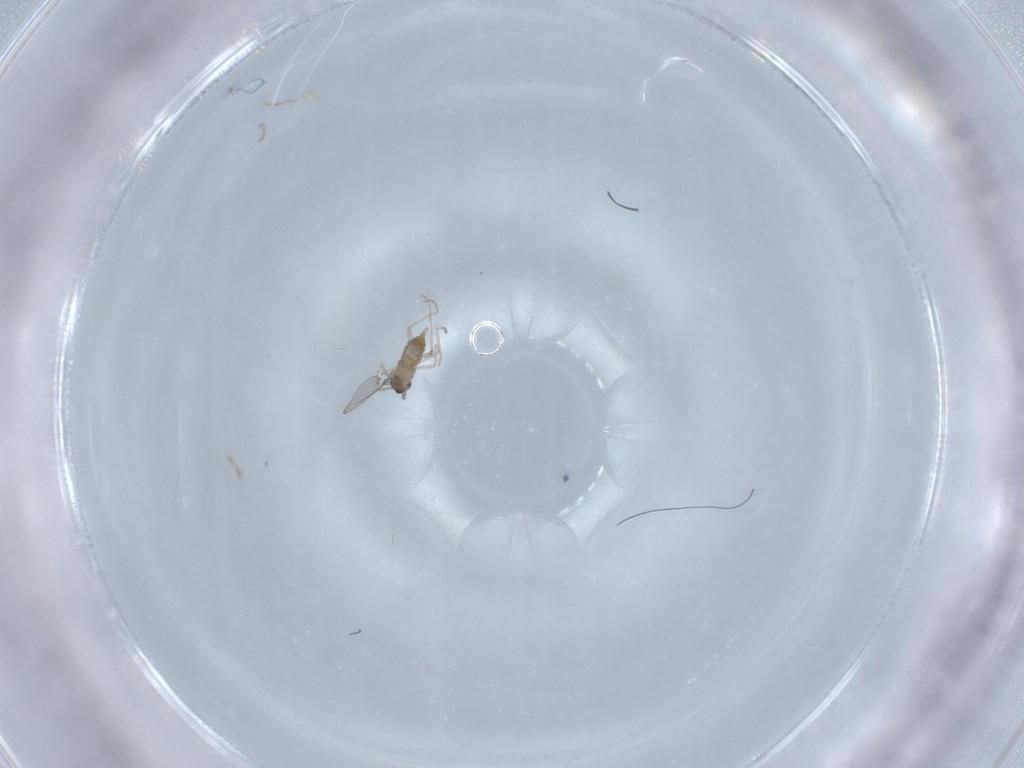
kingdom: Animalia
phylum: Arthropoda
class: Insecta
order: Diptera
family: Cecidomyiidae
